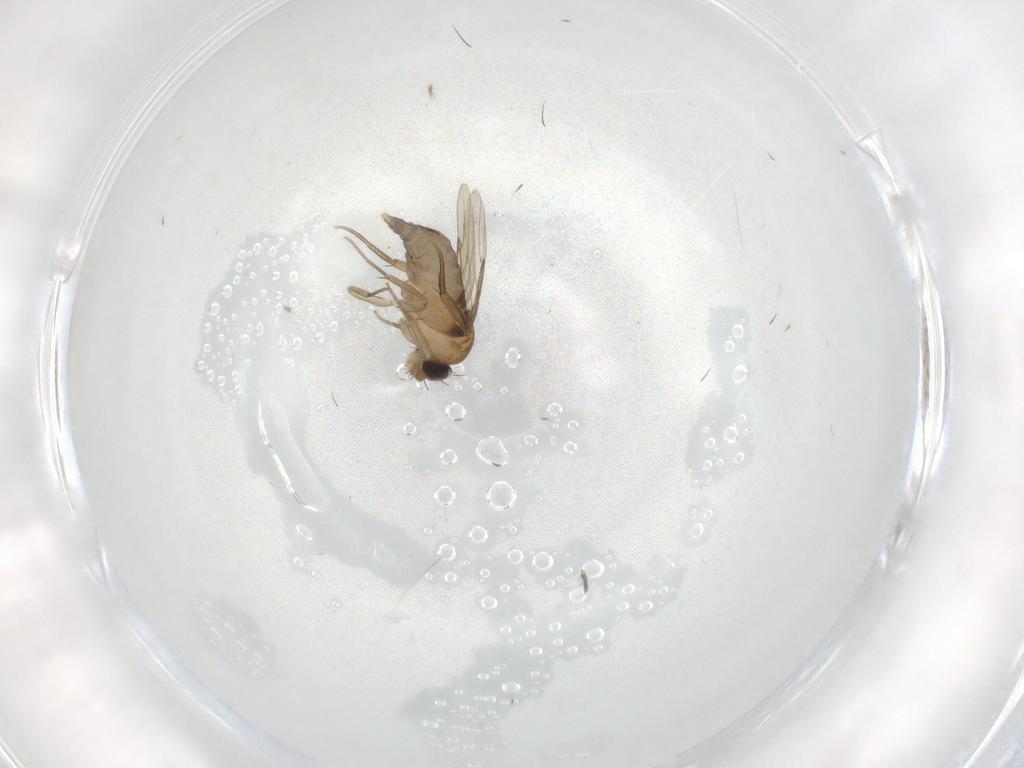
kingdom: Animalia
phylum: Arthropoda
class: Insecta
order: Diptera
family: Phoridae
